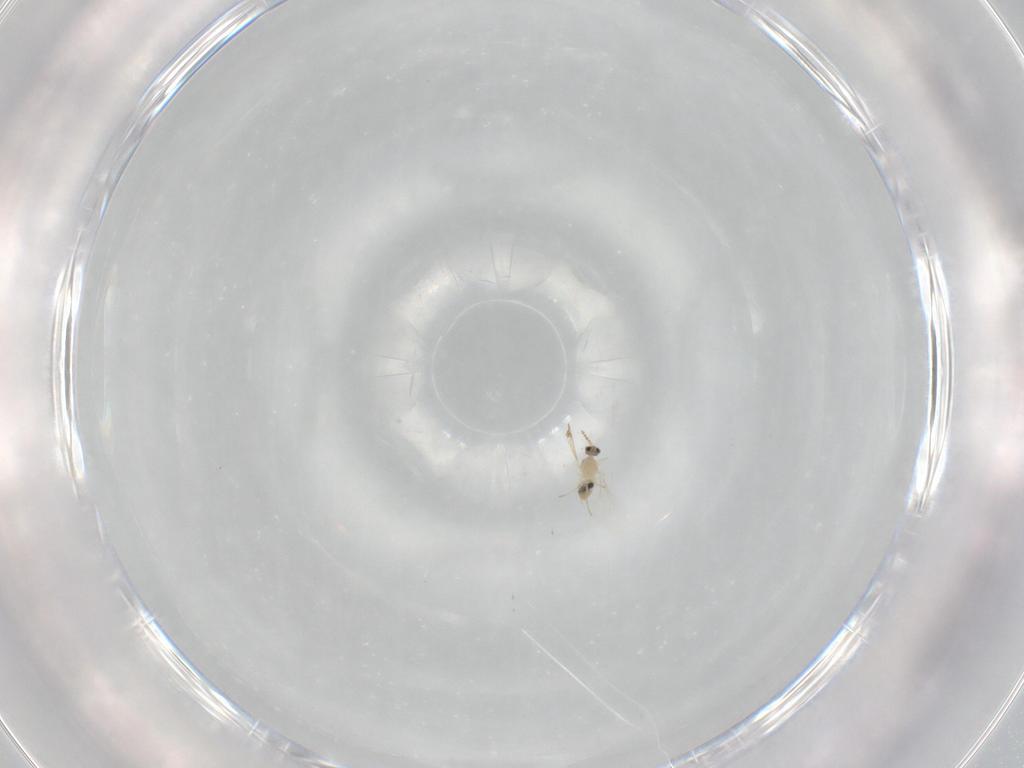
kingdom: Animalia
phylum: Arthropoda
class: Insecta
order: Diptera
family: Cecidomyiidae
